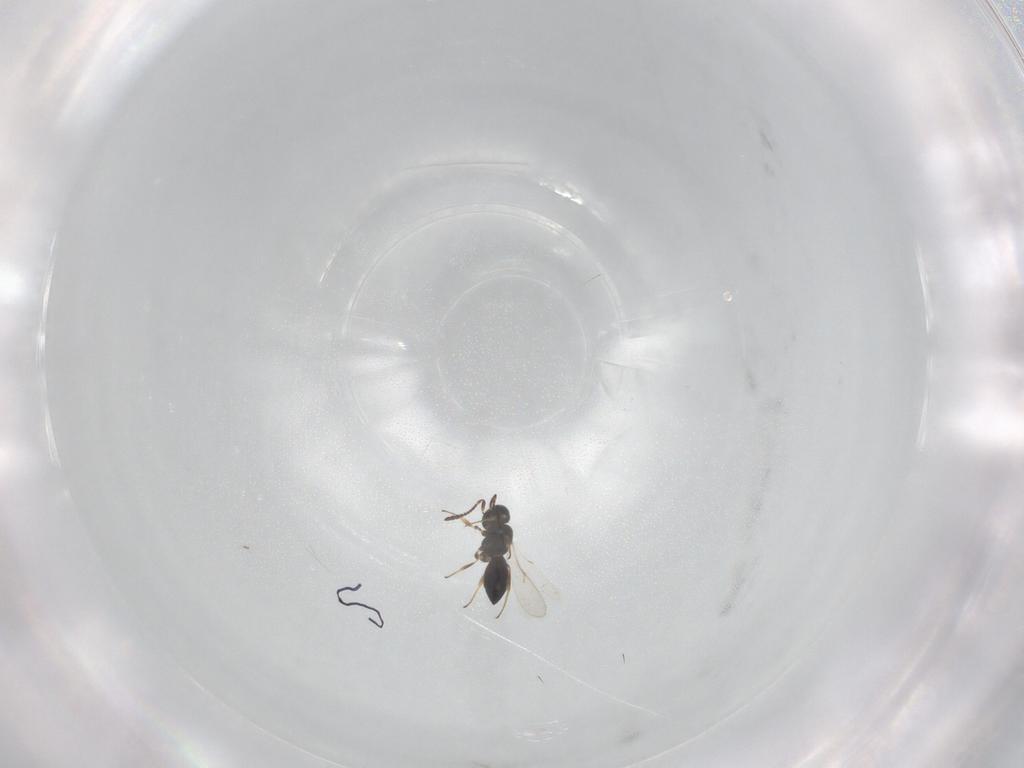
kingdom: Animalia
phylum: Arthropoda
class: Insecta
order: Hymenoptera
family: Scelionidae
